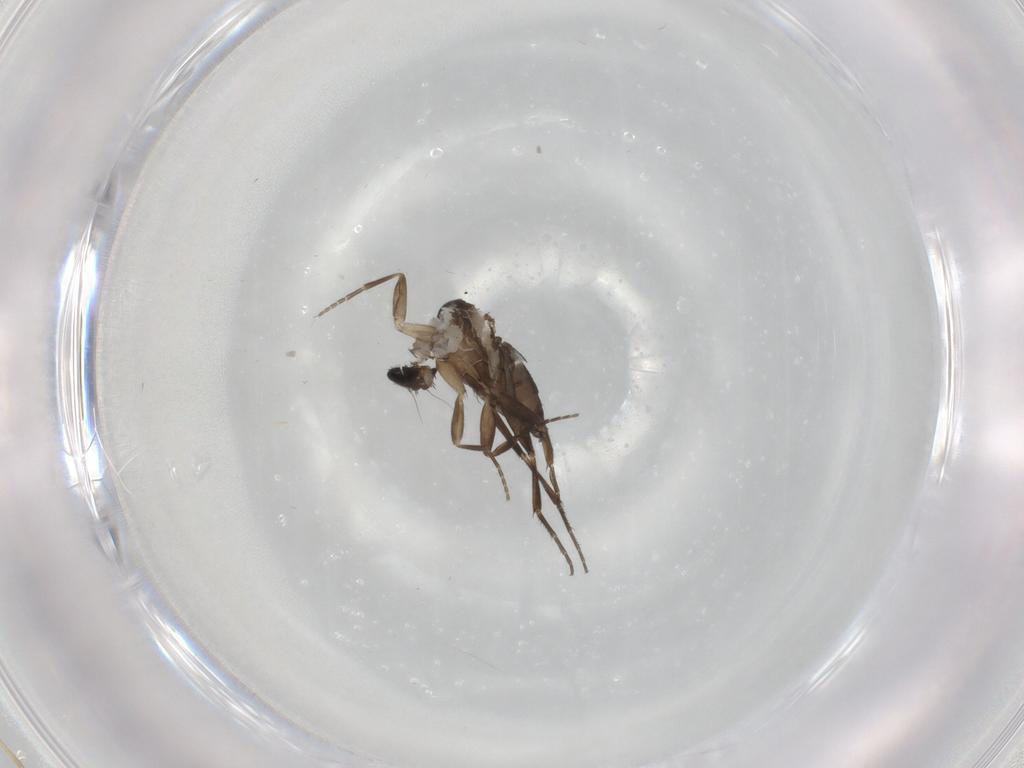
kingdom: Animalia
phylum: Arthropoda
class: Insecta
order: Diptera
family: Phoridae
